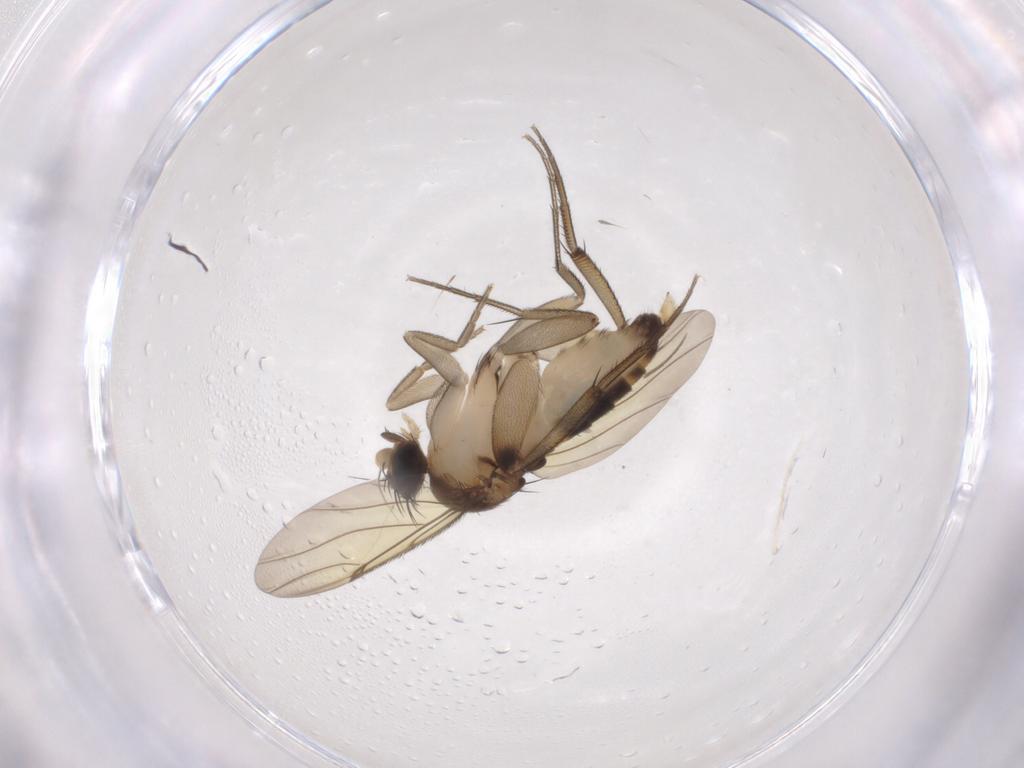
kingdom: Animalia
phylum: Arthropoda
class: Insecta
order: Diptera
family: Phoridae
